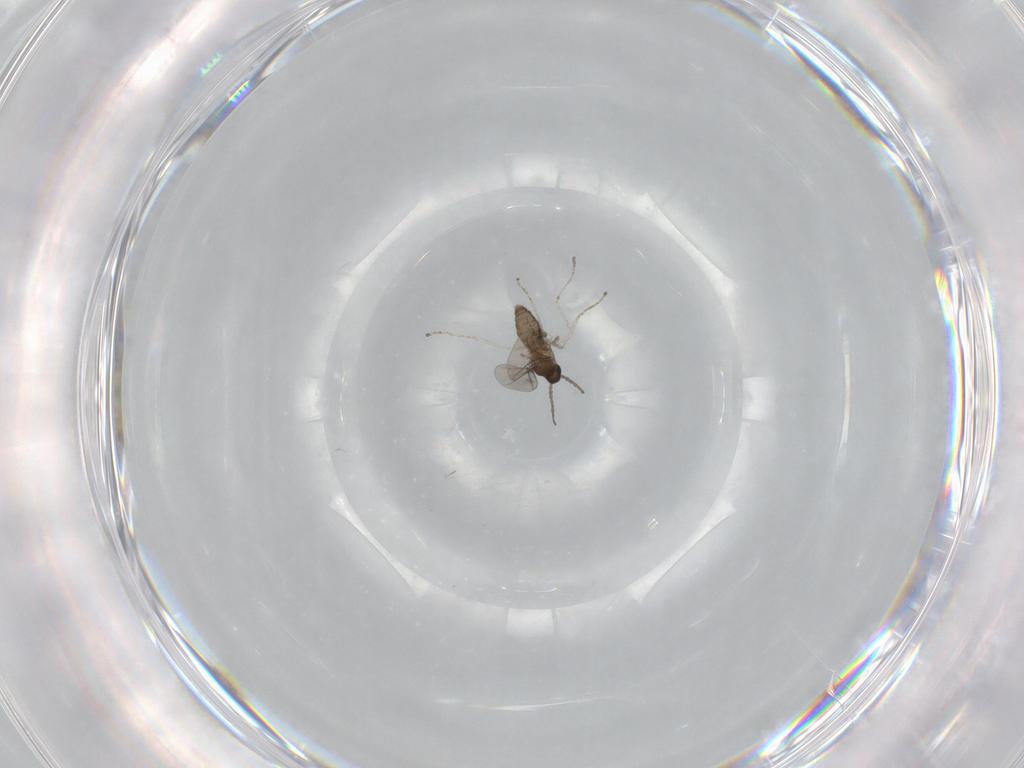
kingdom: Animalia
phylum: Arthropoda
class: Insecta
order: Diptera
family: Cecidomyiidae
